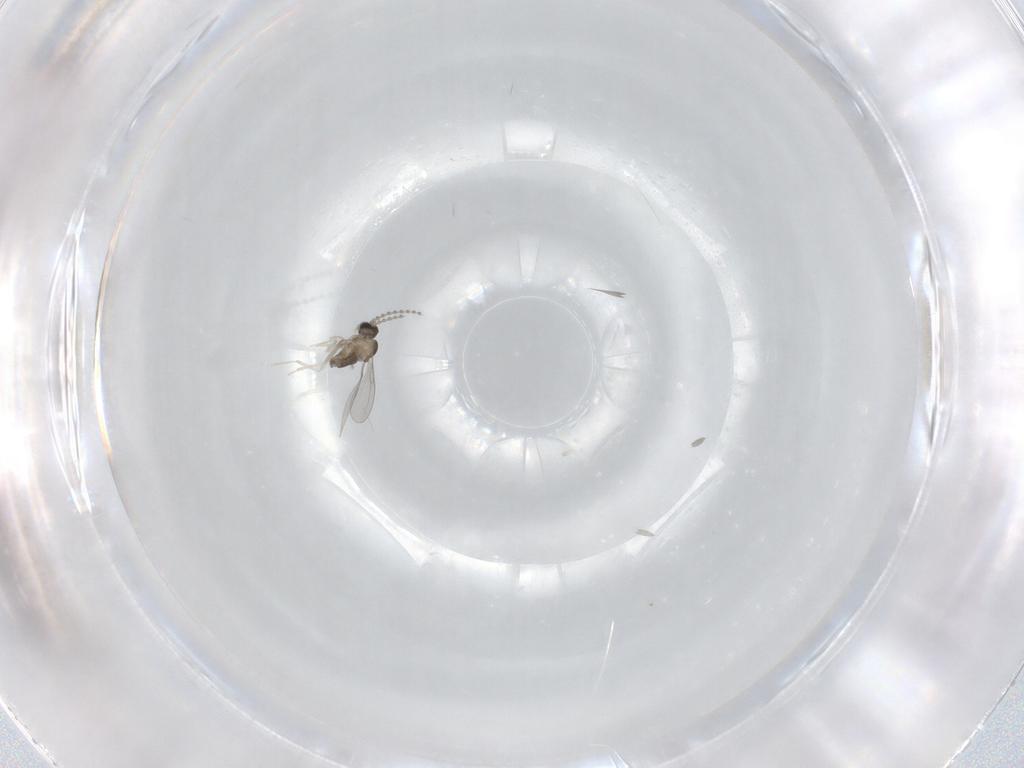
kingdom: Animalia
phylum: Arthropoda
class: Insecta
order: Diptera
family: Cecidomyiidae
